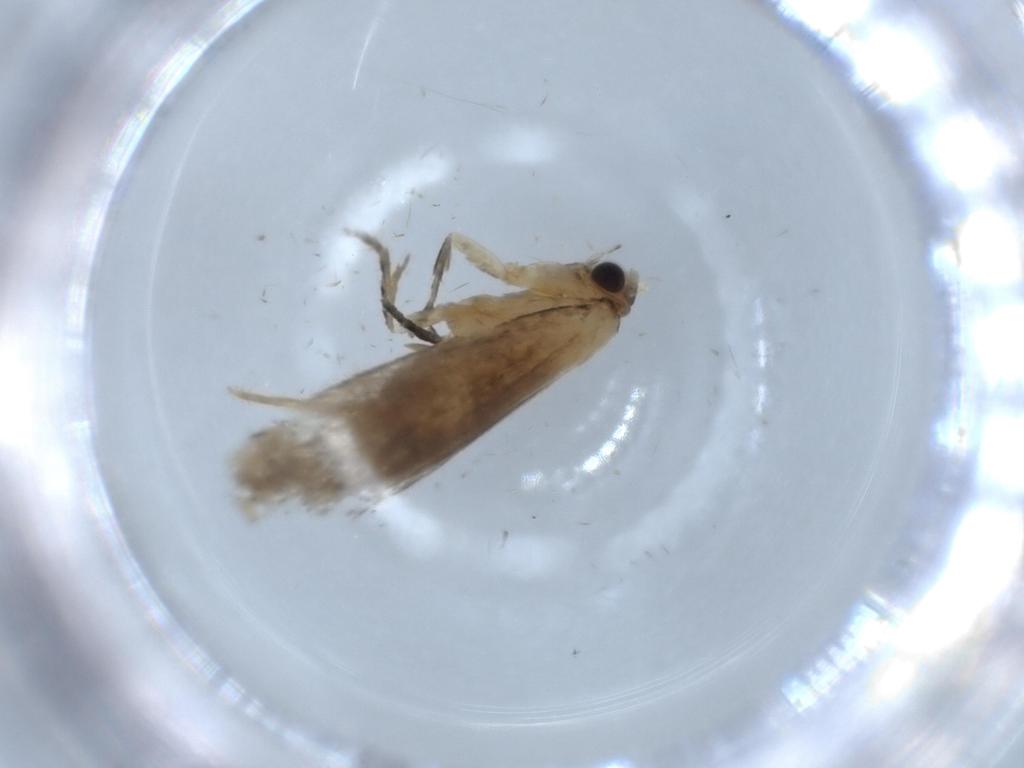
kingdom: Animalia
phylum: Arthropoda
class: Insecta
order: Lepidoptera
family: Tineidae
